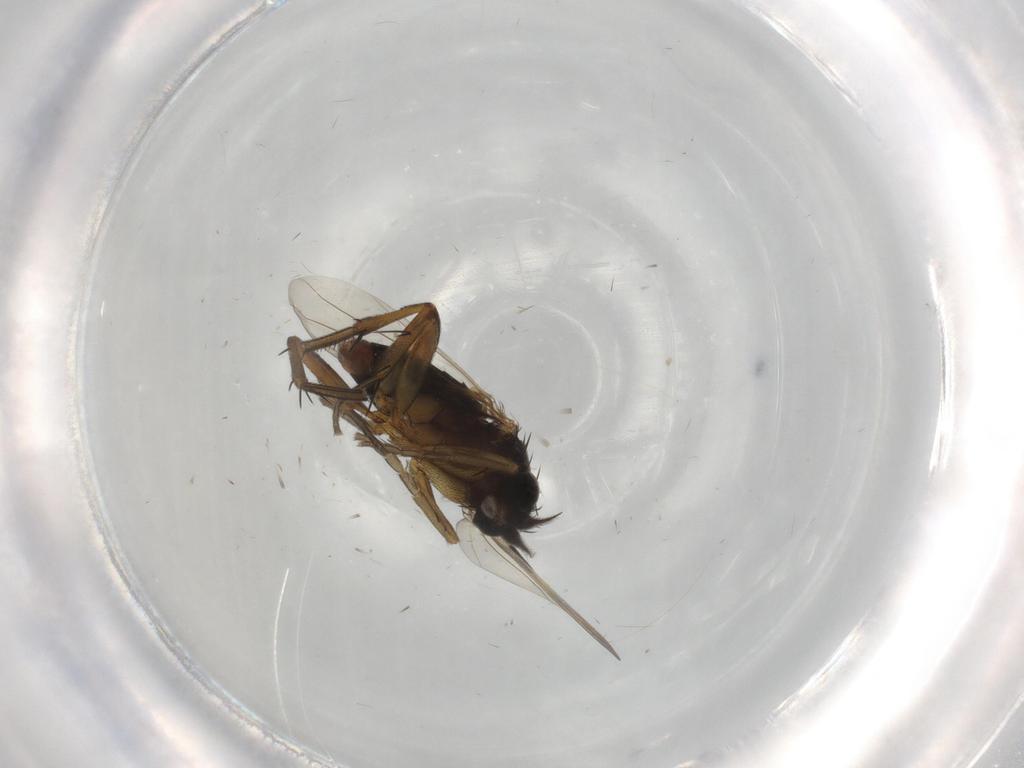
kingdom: Animalia
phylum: Arthropoda
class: Insecta
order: Diptera
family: Phoridae
